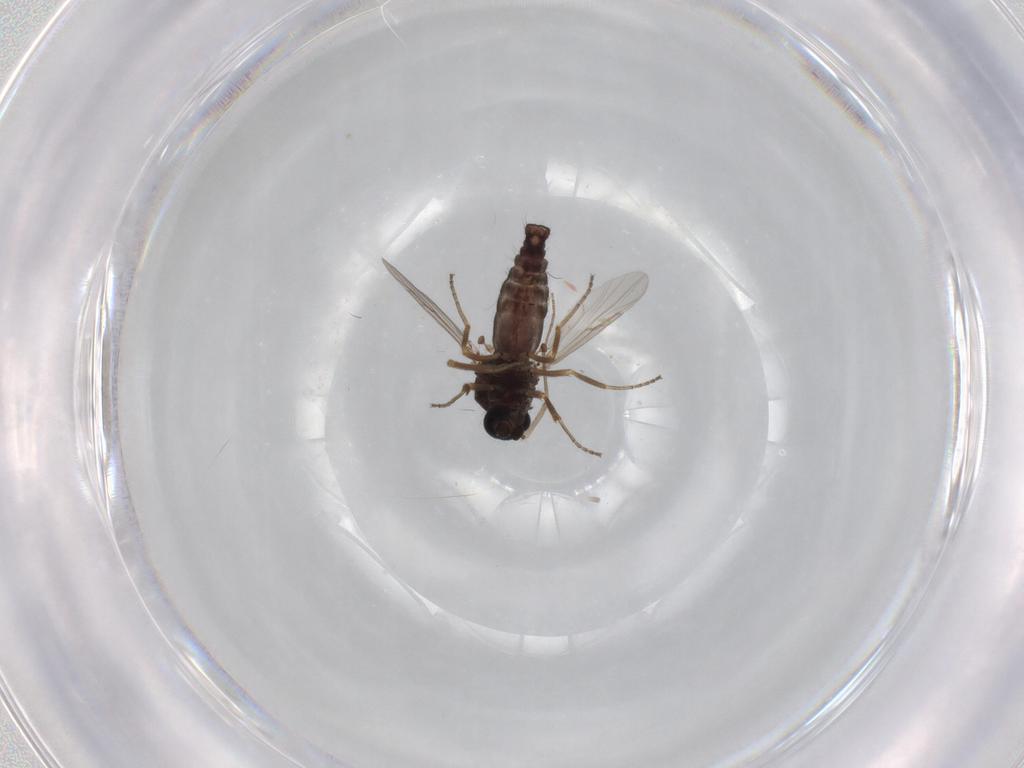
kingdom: Animalia
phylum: Arthropoda
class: Insecta
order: Diptera
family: Ceratopogonidae
